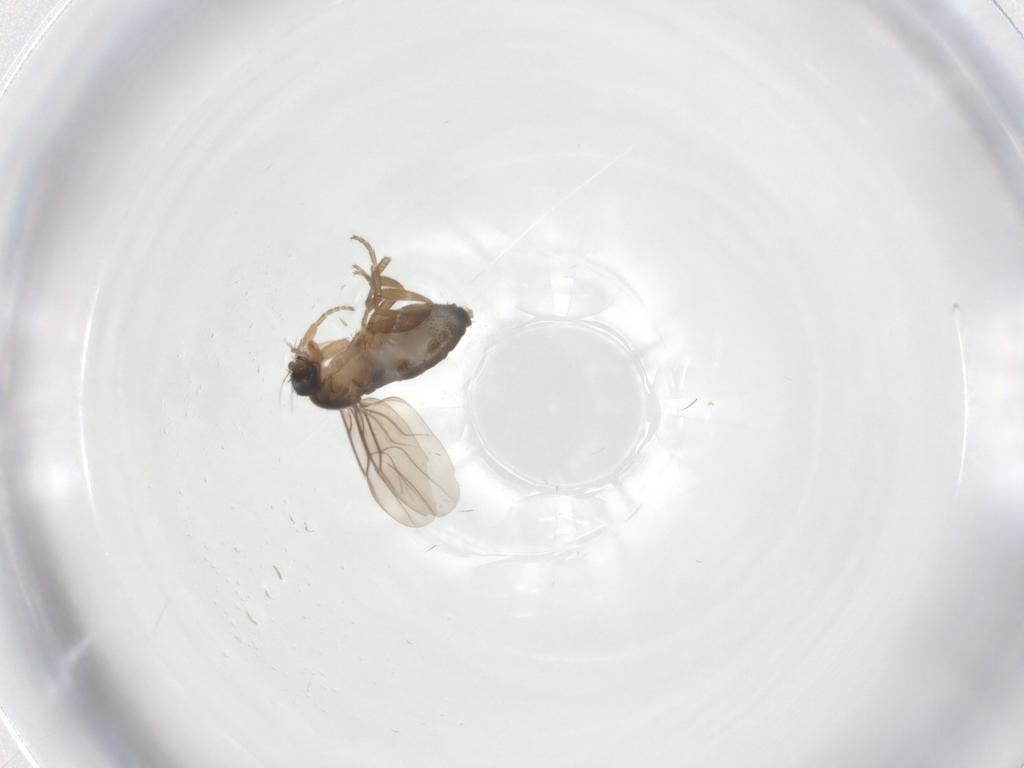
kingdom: Animalia
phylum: Arthropoda
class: Insecta
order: Diptera
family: Phoridae
